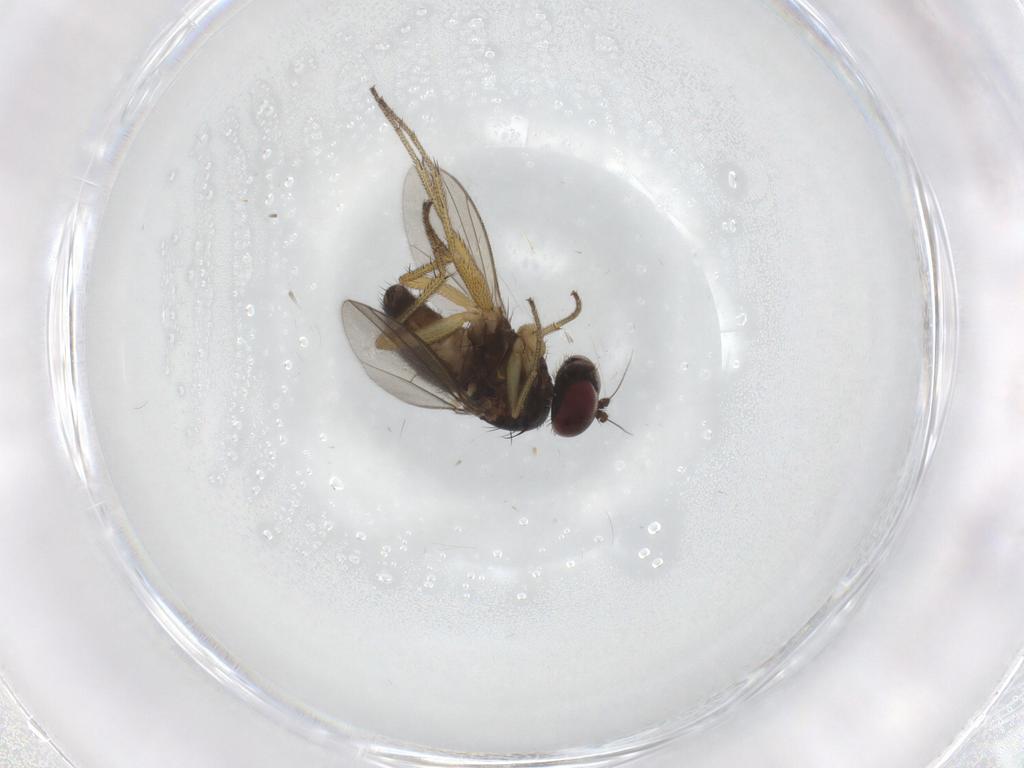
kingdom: Animalia
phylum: Arthropoda
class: Insecta
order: Diptera
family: Dolichopodidae
